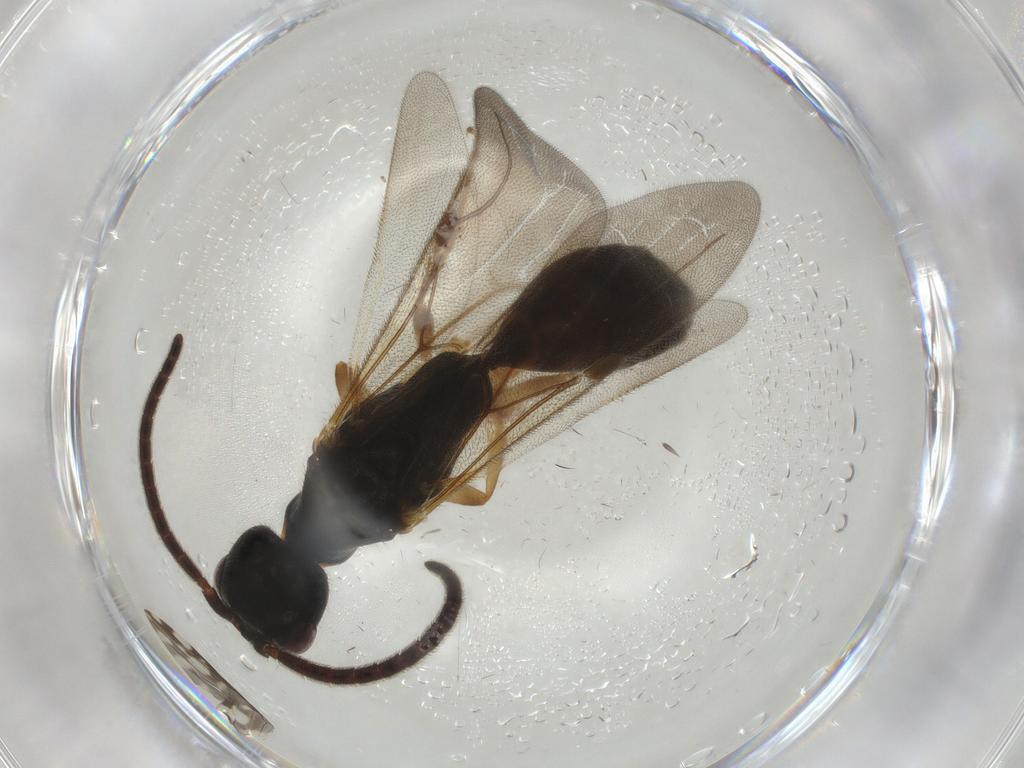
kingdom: Animalia
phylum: Arthropoda
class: Insecta
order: Hymenoptera
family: Bethylidae
